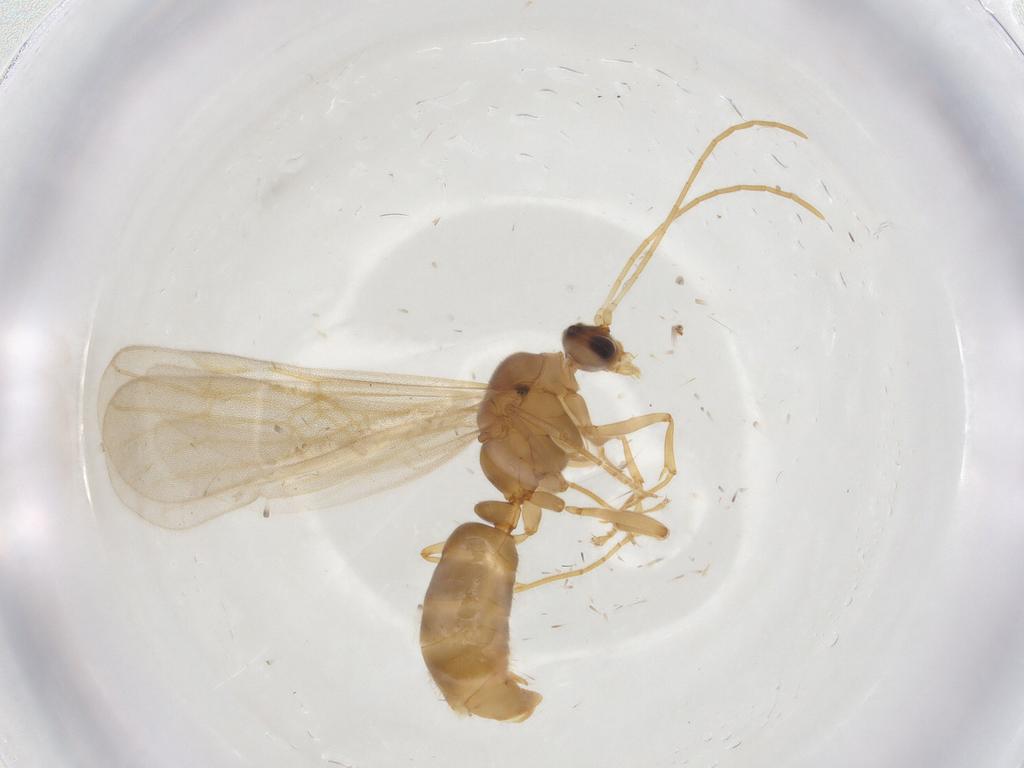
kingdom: Animalia
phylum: Arthropoda
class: Insecta
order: Hymenoptera
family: Formicidae
